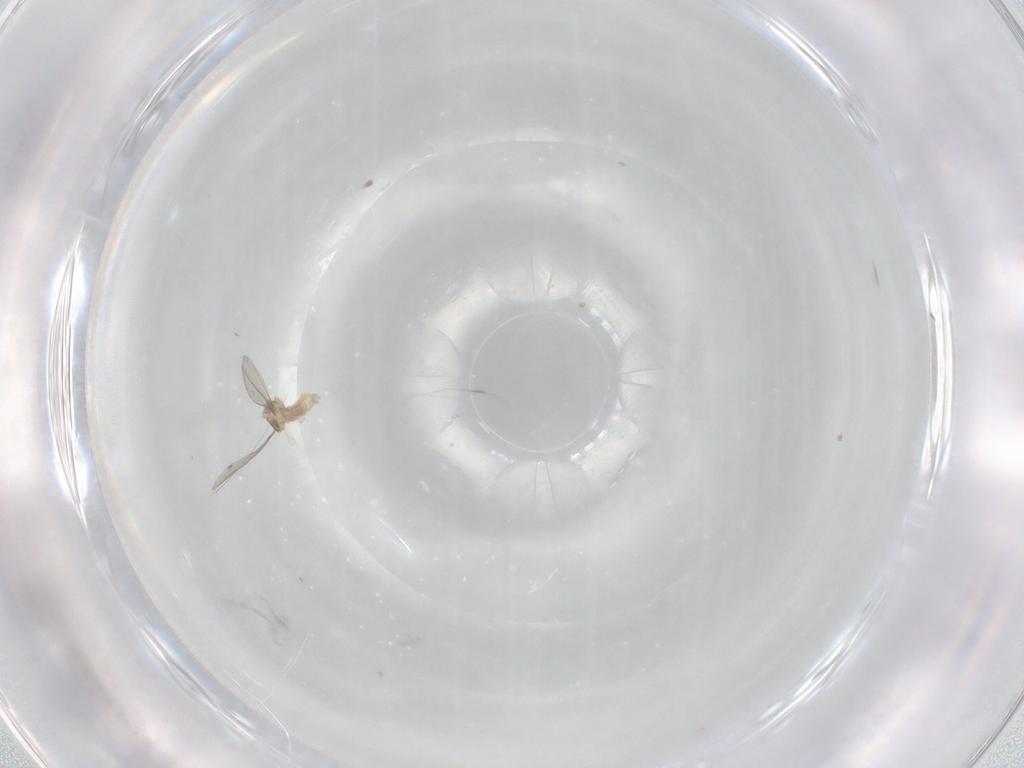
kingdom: Animalia
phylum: Arthropoda
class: Insecta
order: Diptera
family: Cecidomyiidae
